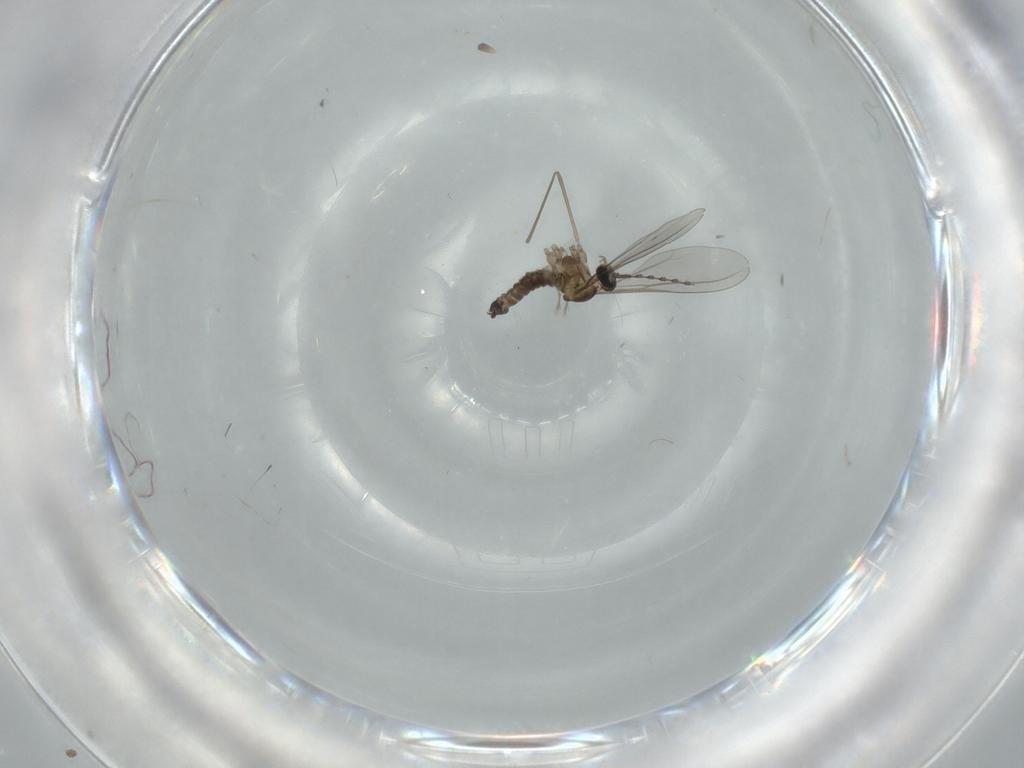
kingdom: Animalia
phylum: Arthropoda
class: Insecta
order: Diptera
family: Cecidomyiidae
